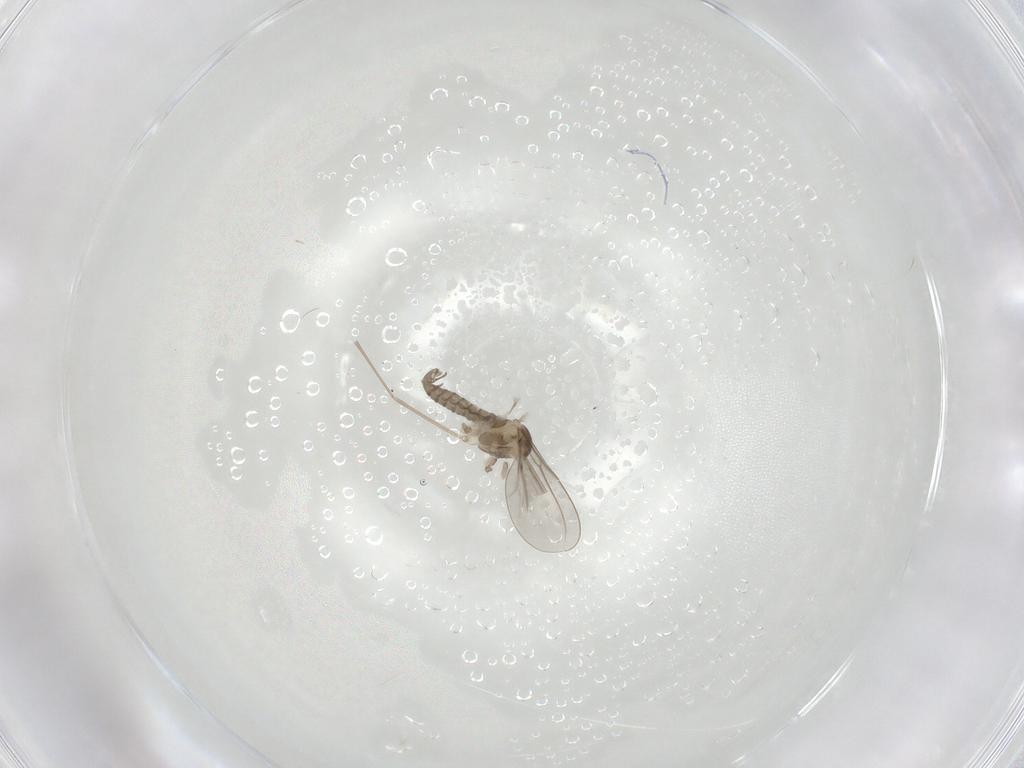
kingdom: Animalia
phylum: Arthropoda
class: Insecta
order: Diptera
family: Cecidomyiidae
